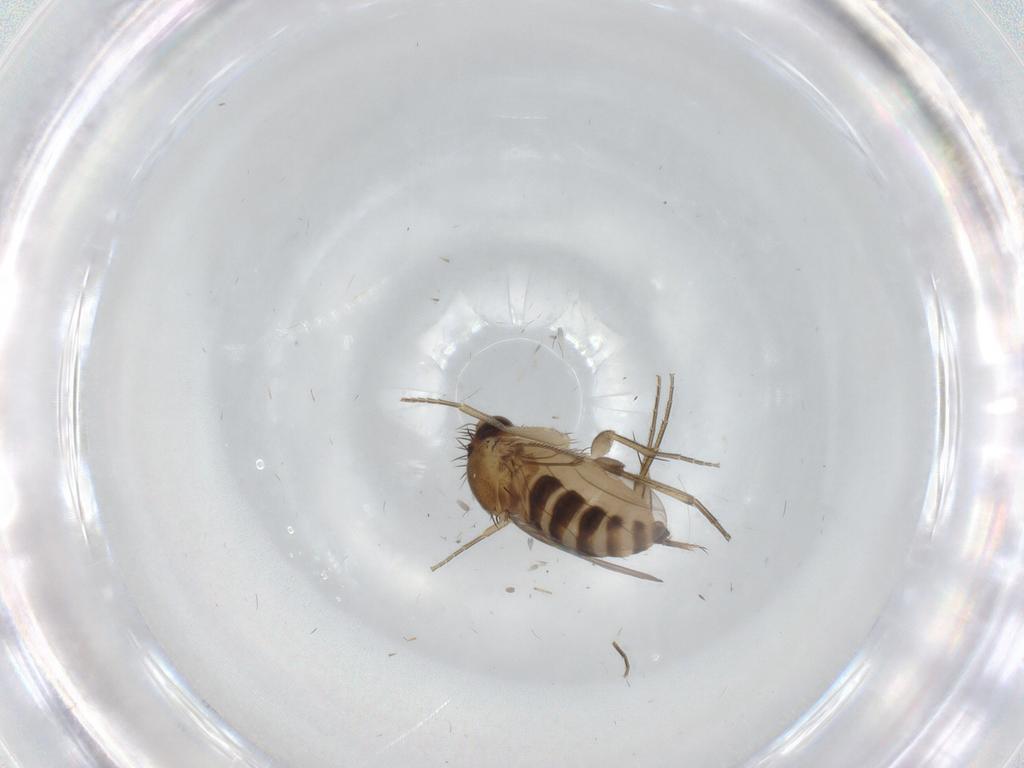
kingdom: Animalia
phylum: Arthropoda
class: Insecta
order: Diptera
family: Phoridae
